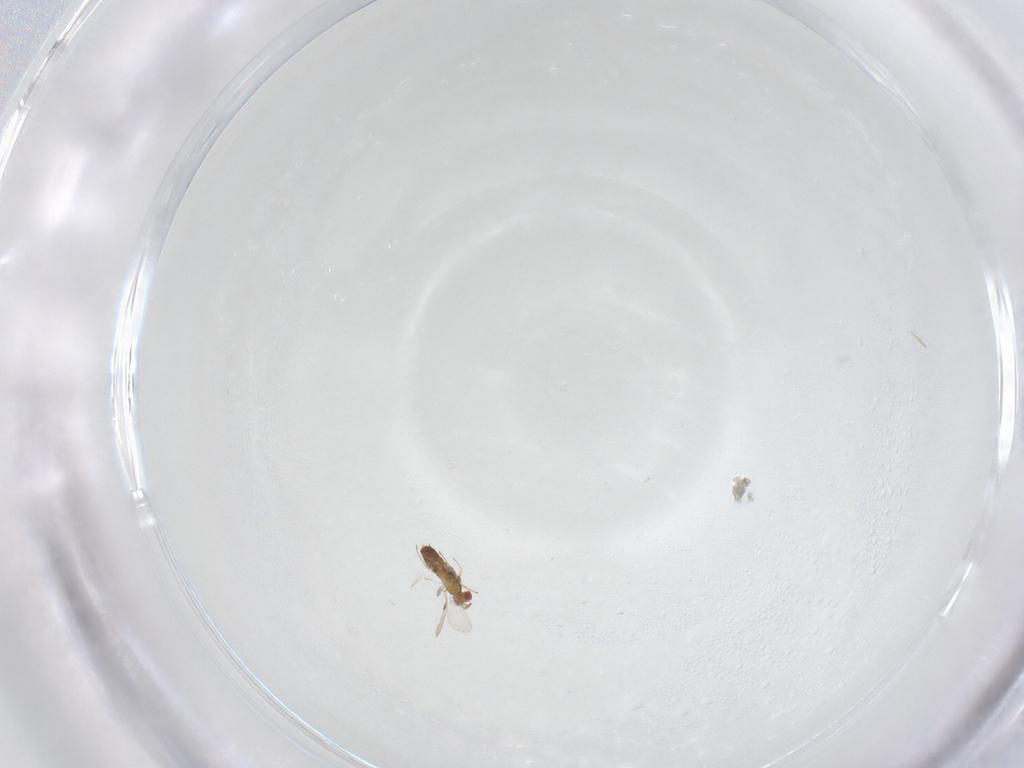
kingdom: Animalia
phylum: Arthropoda
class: Insecta
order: Hymenoptera
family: Trichogrammatidae
